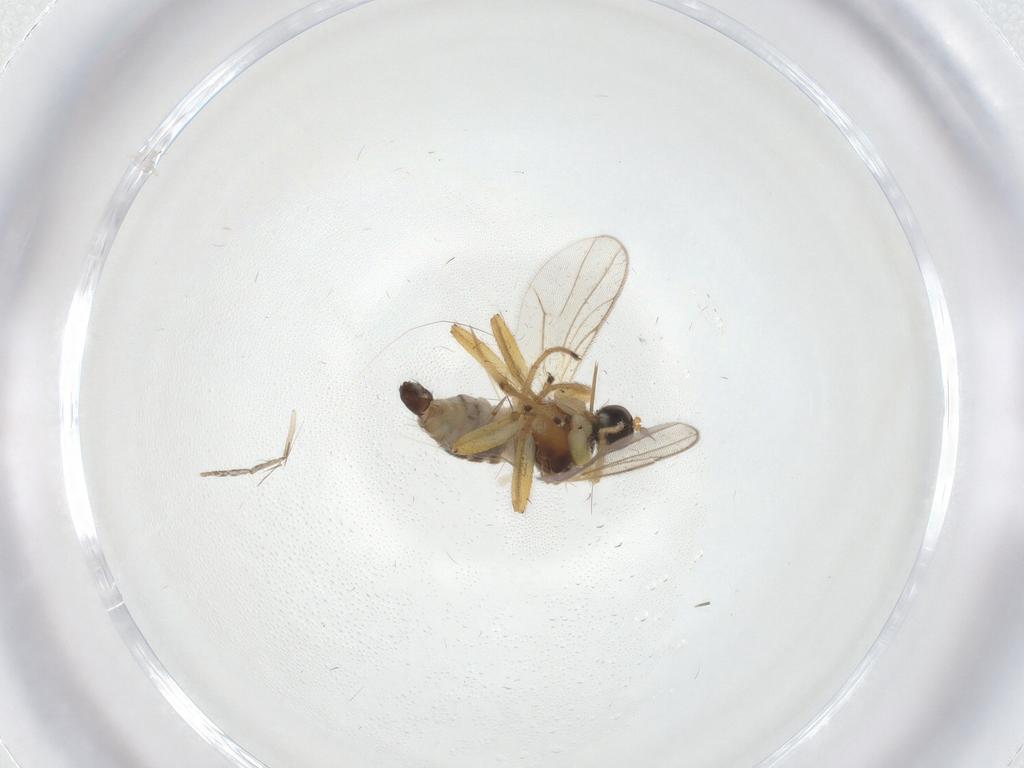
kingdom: Animalia
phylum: Arthropoda
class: Insecta
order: Diptera
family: Hybotidae
